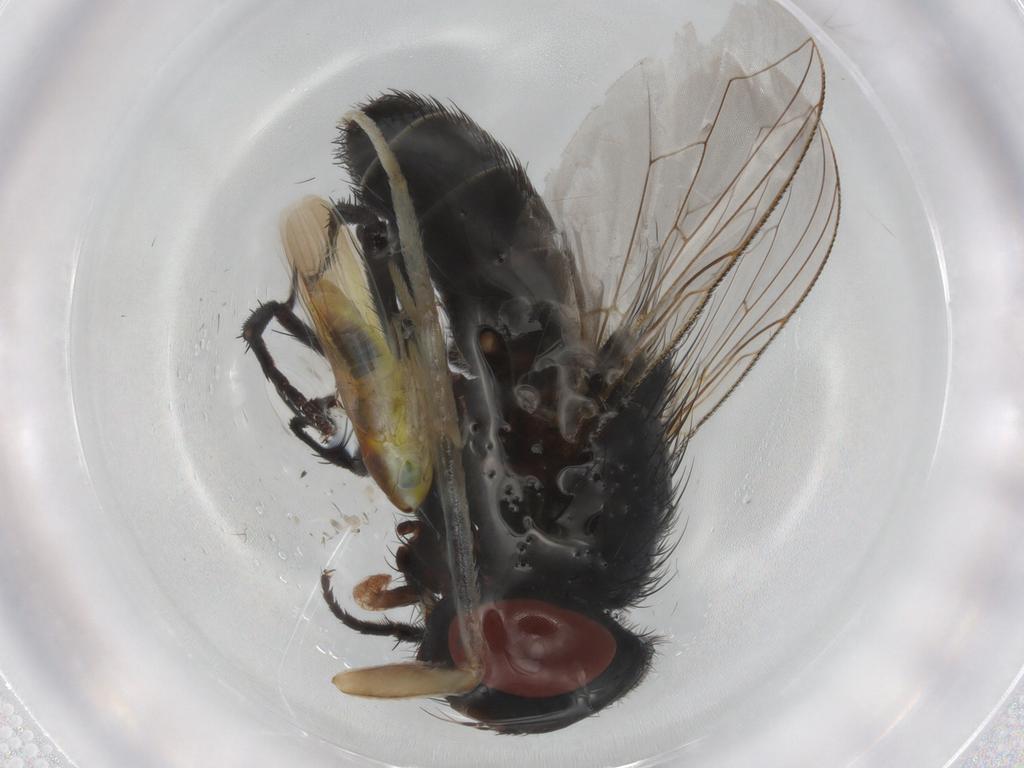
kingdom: Animalia
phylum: Arthropoda
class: Insecta
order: Diptera
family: Sarcophagidae
